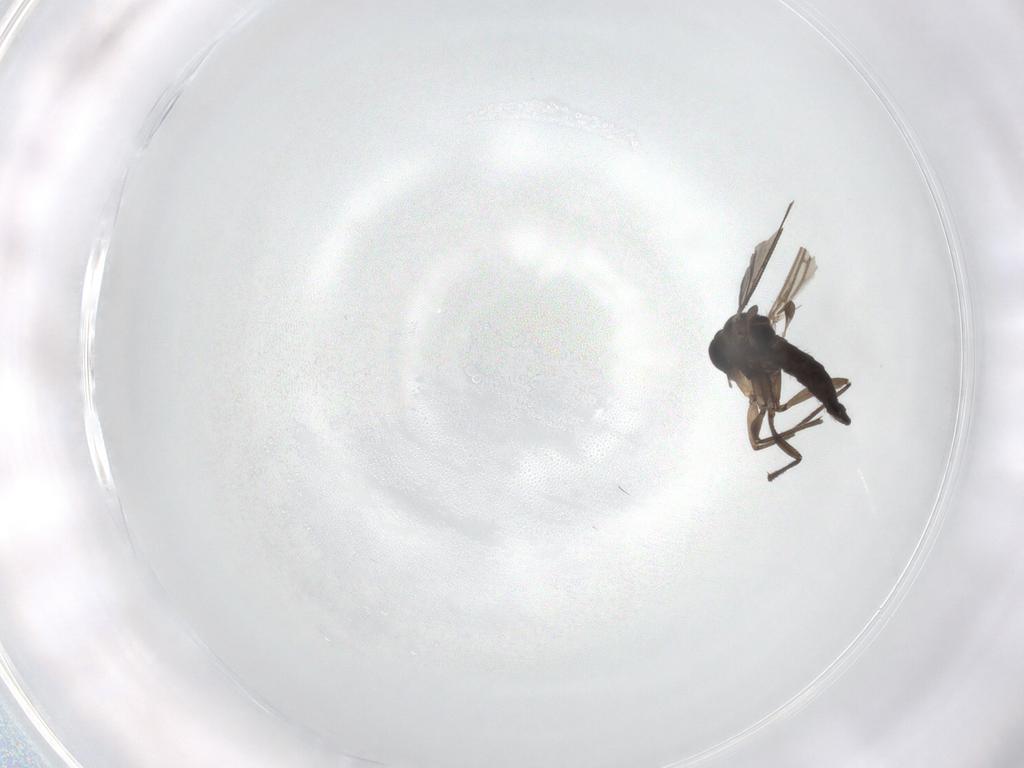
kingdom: Animalia
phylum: Arthropoda
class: Insecta
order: Diptera
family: Sciaridae
